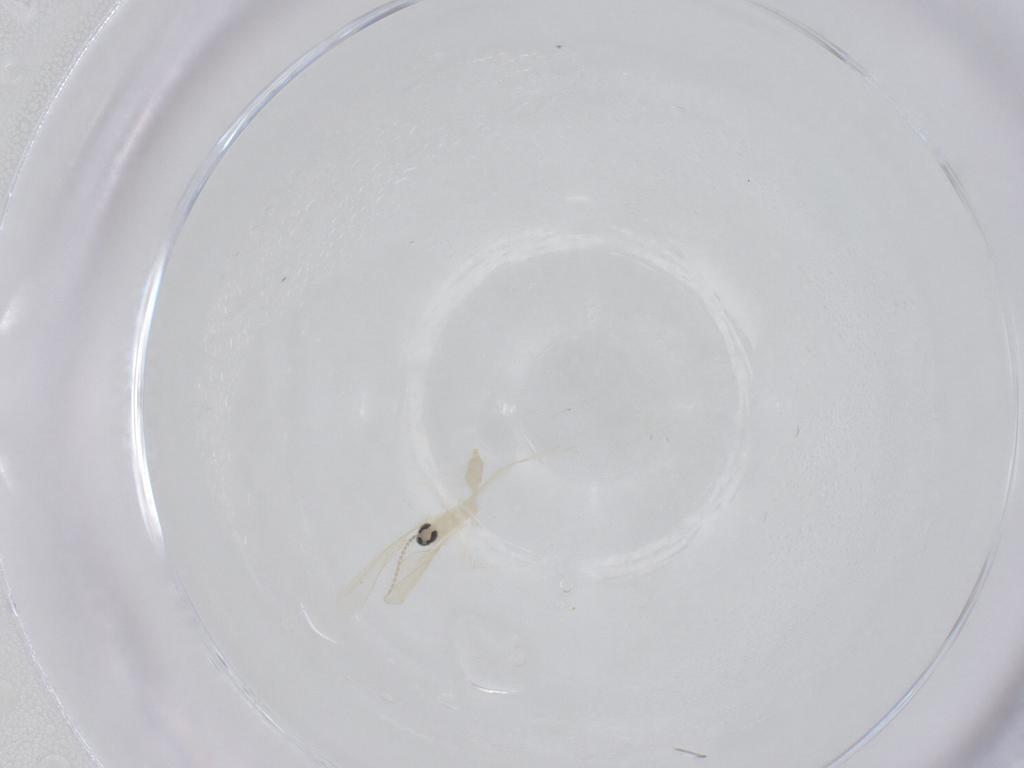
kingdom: Animalia
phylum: Arthropoda
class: Insecta
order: Diptera
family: Cecidomyiidae
